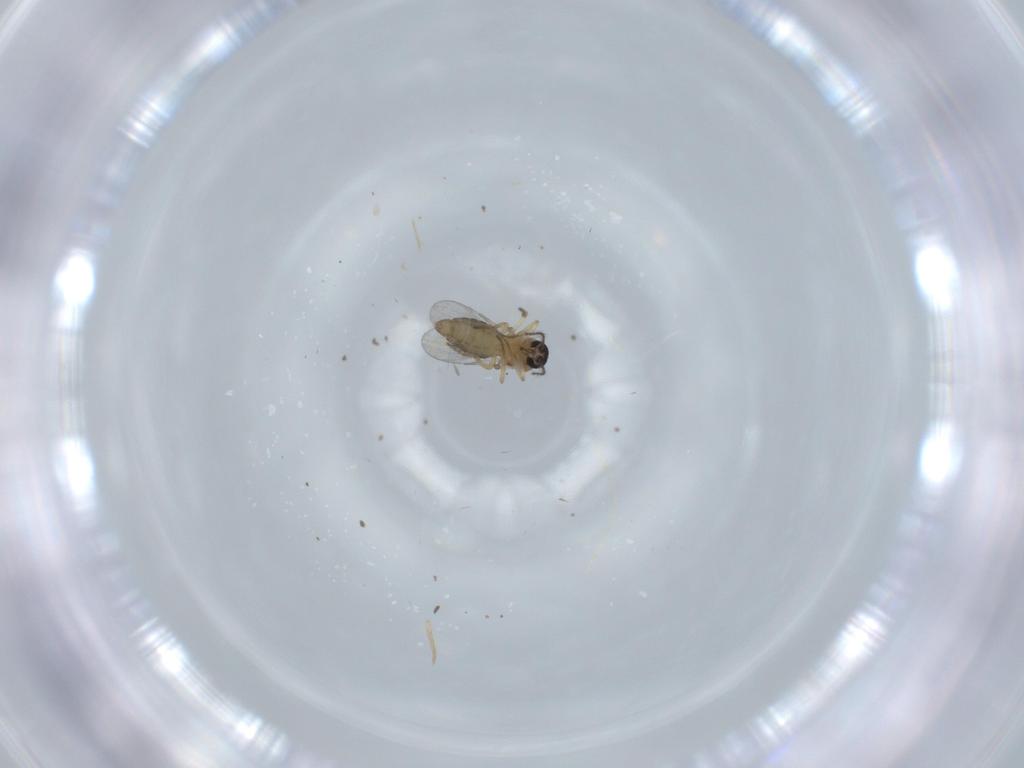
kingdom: Animalia
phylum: Arthropoda
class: Insecta
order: Diptera
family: Ceratopogonidae
